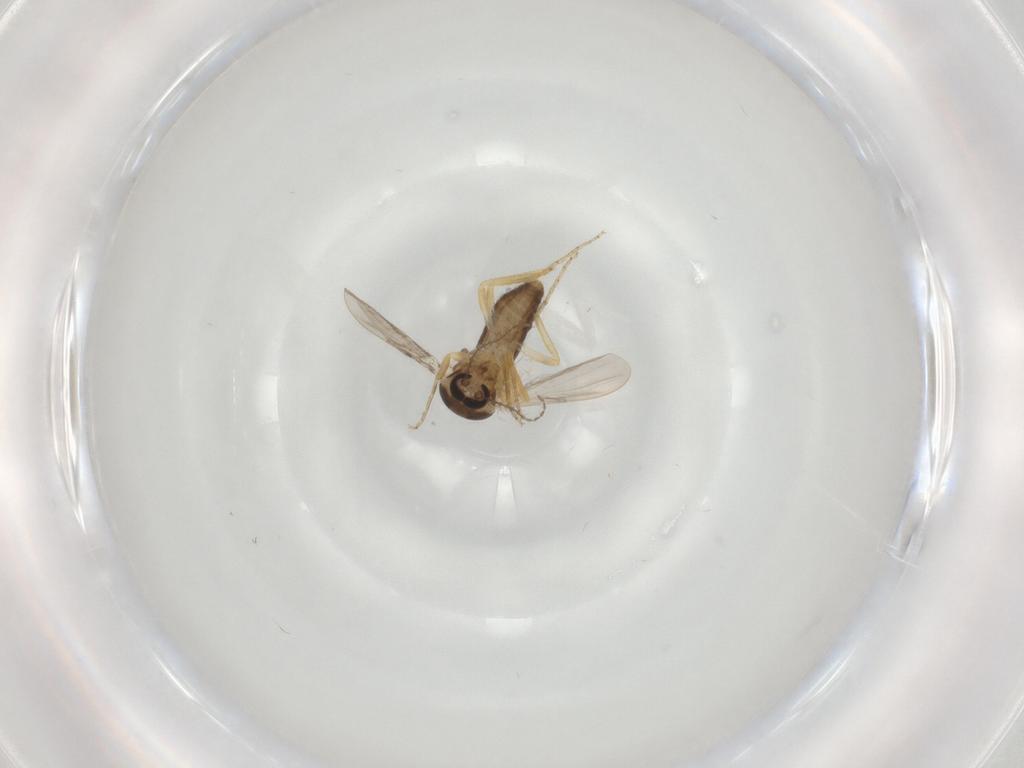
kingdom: Animalia
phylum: Arthropoda
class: Insecta
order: Diptera
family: Ceratopogonidae
